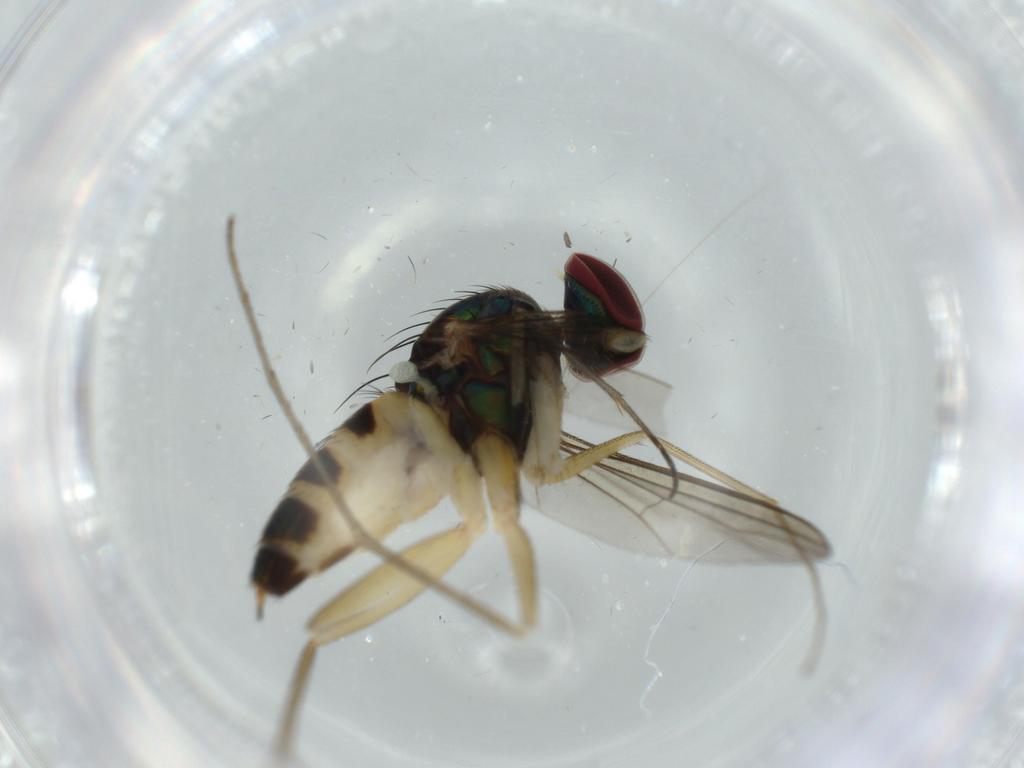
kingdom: Animalia
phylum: Arthropoda
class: Insecta
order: Diptera
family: Dolichopodidae
